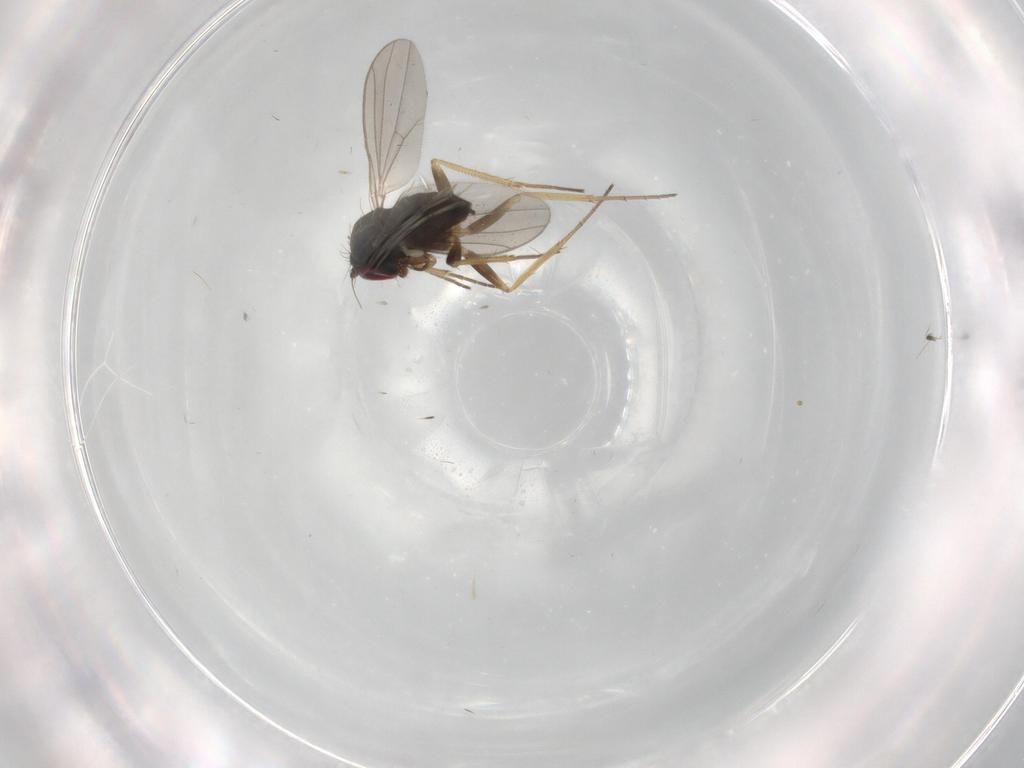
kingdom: Animalia
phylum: Arthropoda
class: Insecta
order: Diptera
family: Dolichopodidae
